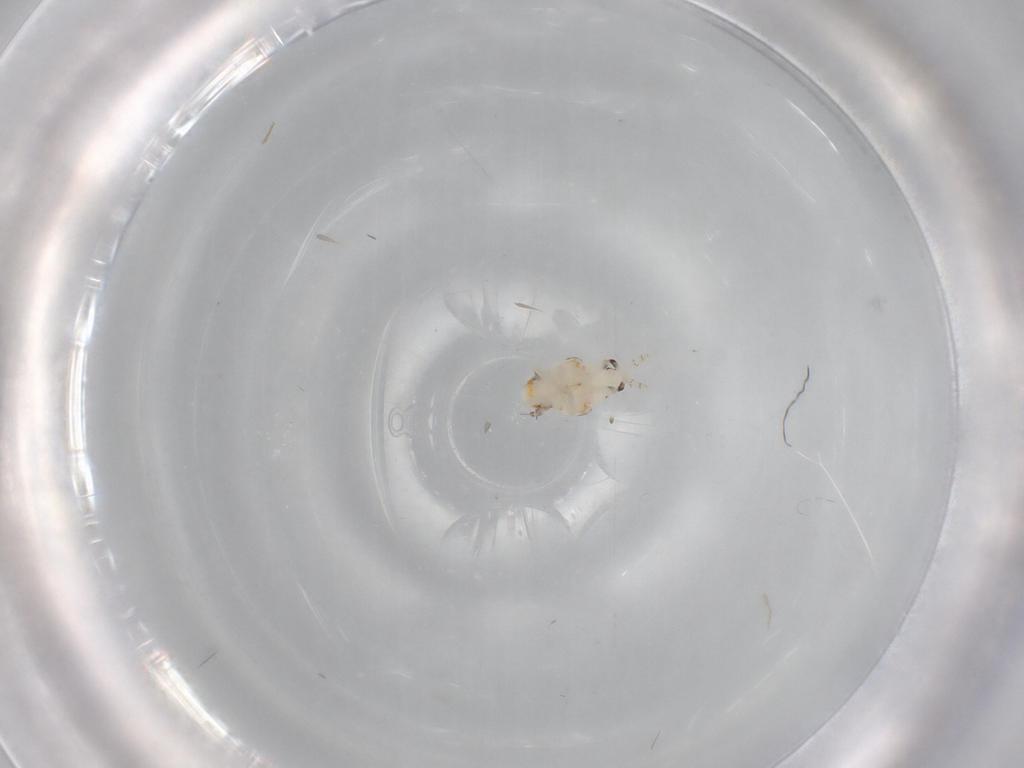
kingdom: Animalia
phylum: Arthropoda
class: Insecta
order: Hemiptera
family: Nogodinidae
